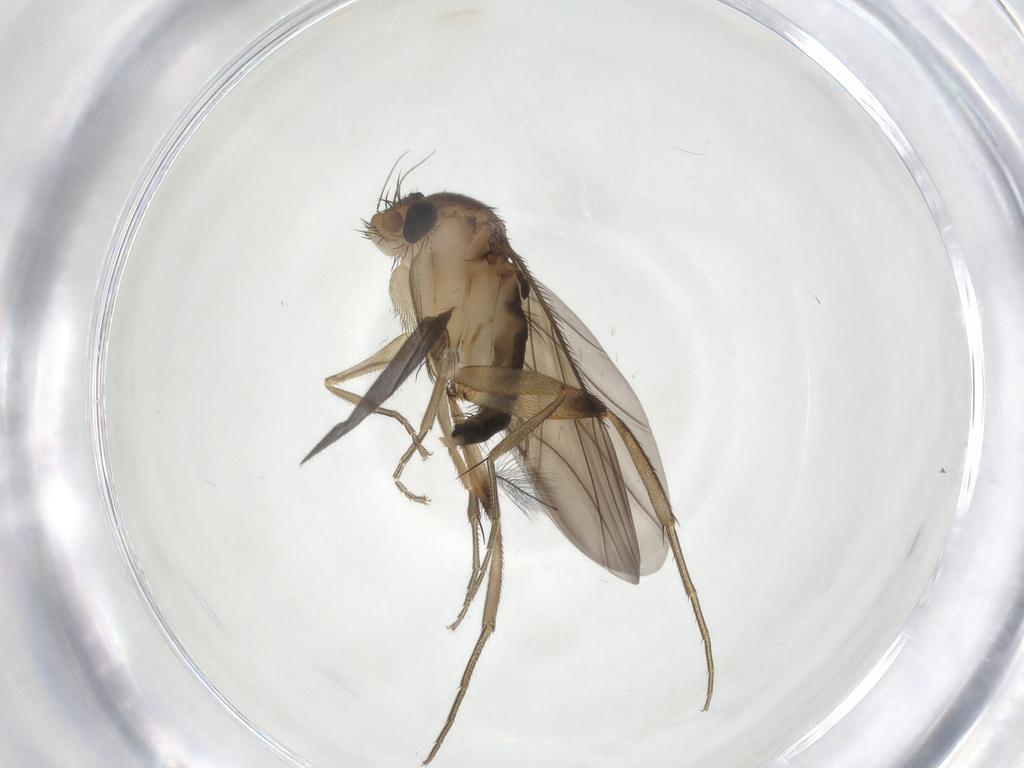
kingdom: Animalia
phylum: Arthropoda
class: Insecta
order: Diptera
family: Phoridae
